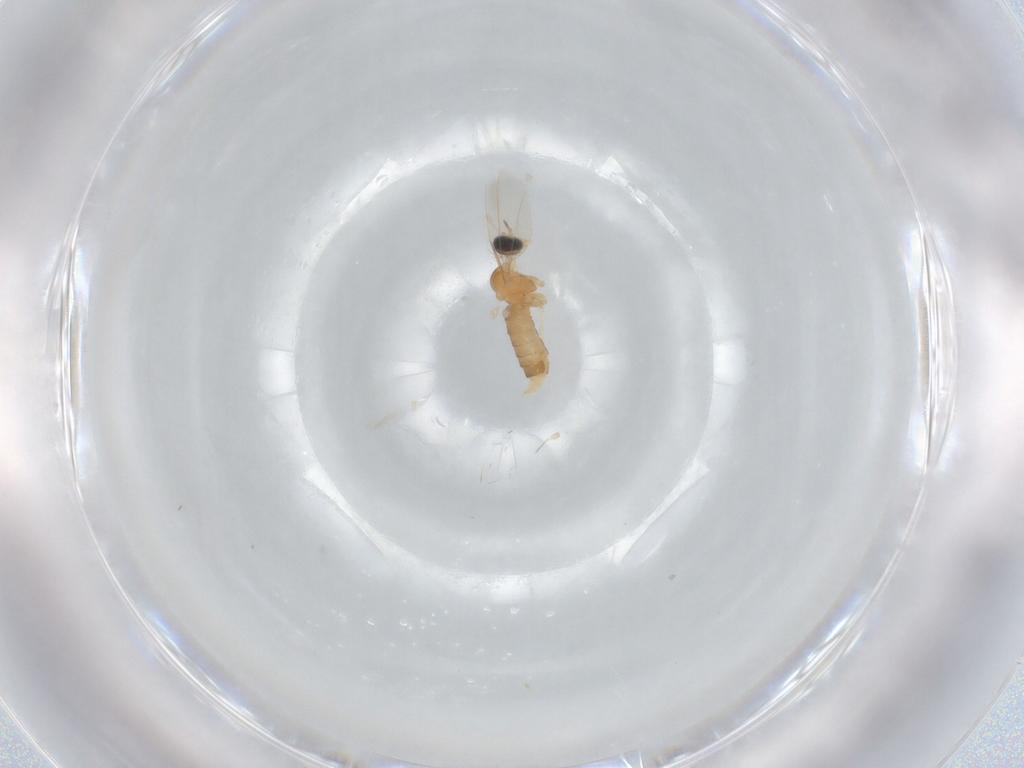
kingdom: Animalia
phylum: Arthropoda
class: Insecta
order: Diptera
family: Cecidomyiidae
